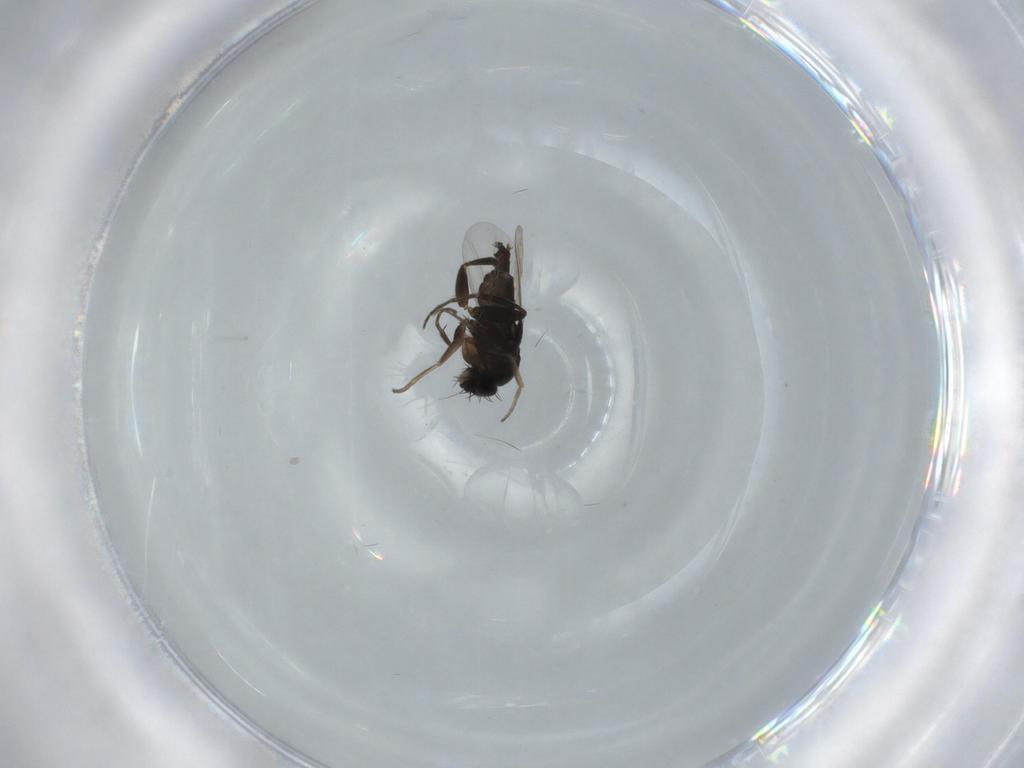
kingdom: Animalia
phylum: Arthropoda
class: Insecta
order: Diptera
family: Phoridae
